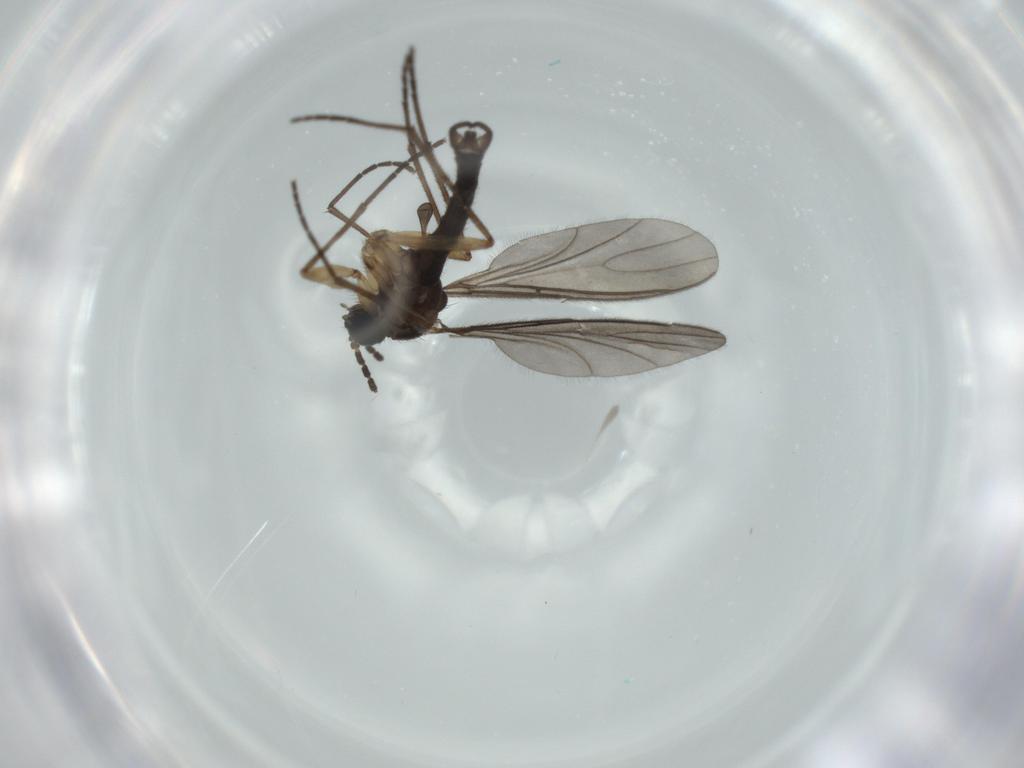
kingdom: Animalia
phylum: Arthropoda
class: Insecta
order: Diptera
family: Sciaridae
